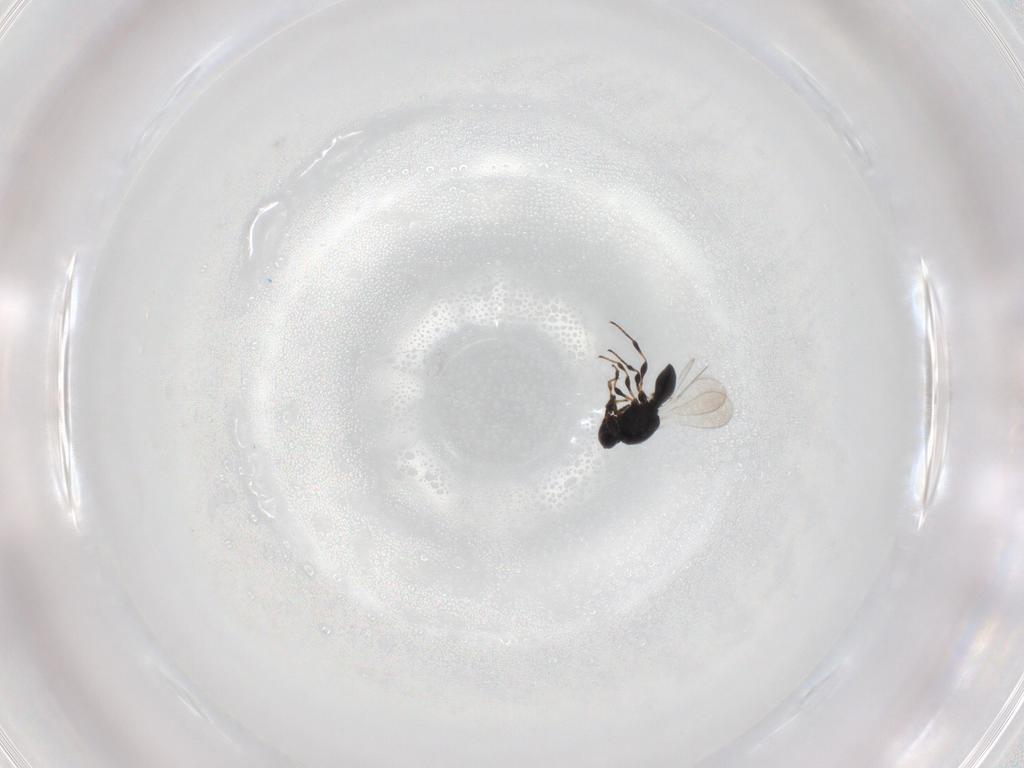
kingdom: Animalia
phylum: Arthropoda
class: Insecta
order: Hymenoptera
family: Platygastridae
